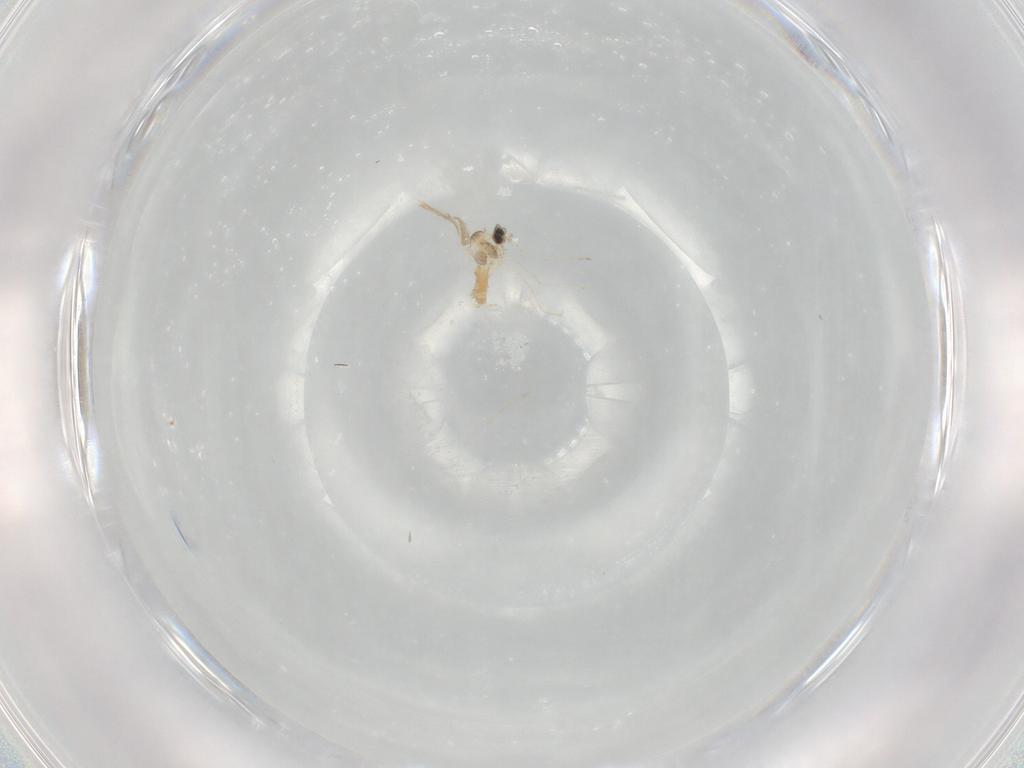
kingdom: Animalia
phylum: Arthropoda
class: Insecta
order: Diptera
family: Cecidomyiidae
